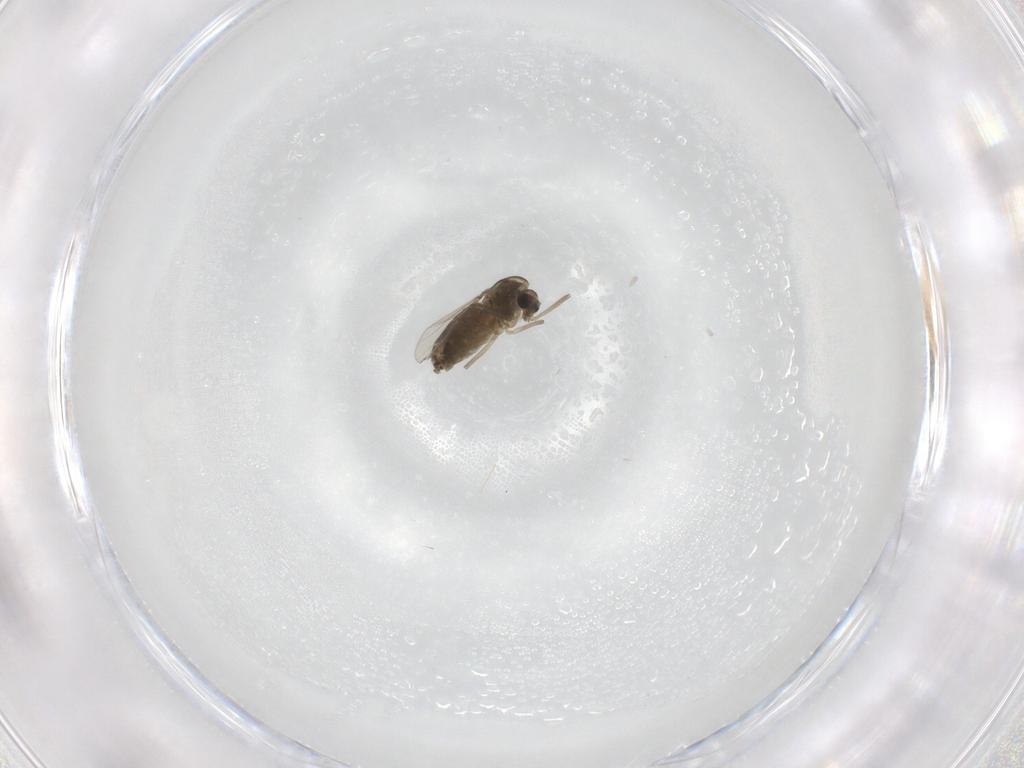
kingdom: Animalia
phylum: Arthropoda
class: Insecta
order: Diptera
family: Phoridae
